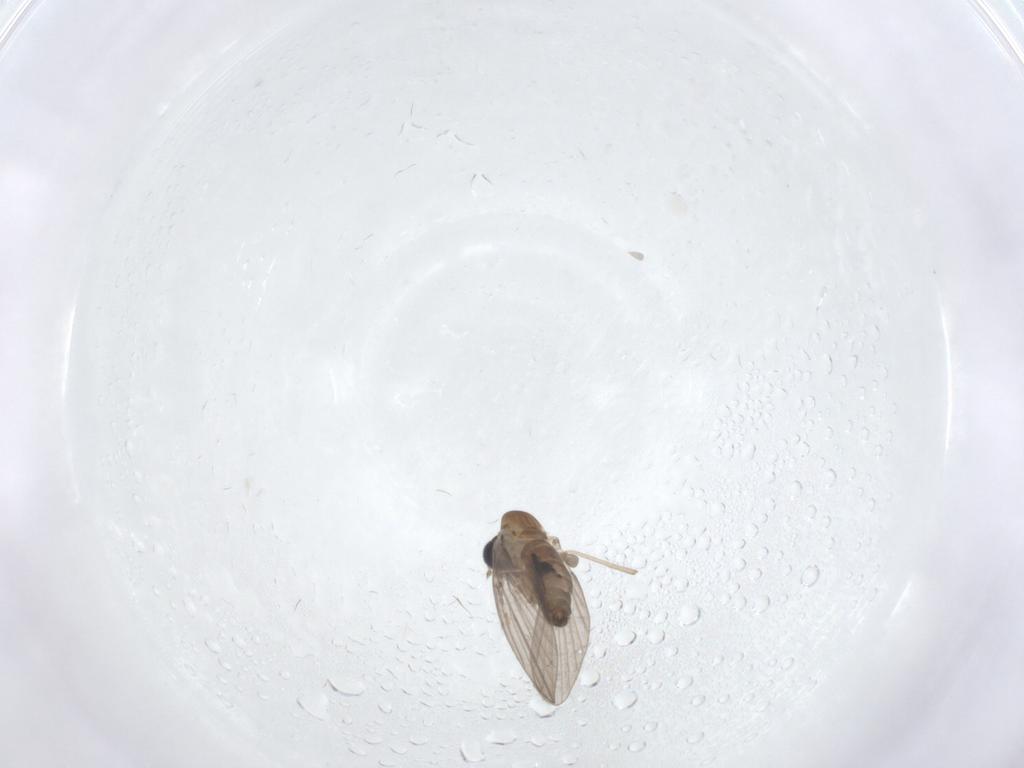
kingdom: Animalia
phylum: Arthropoda
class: Insecta
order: Diptera
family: Ceratopogonidae
